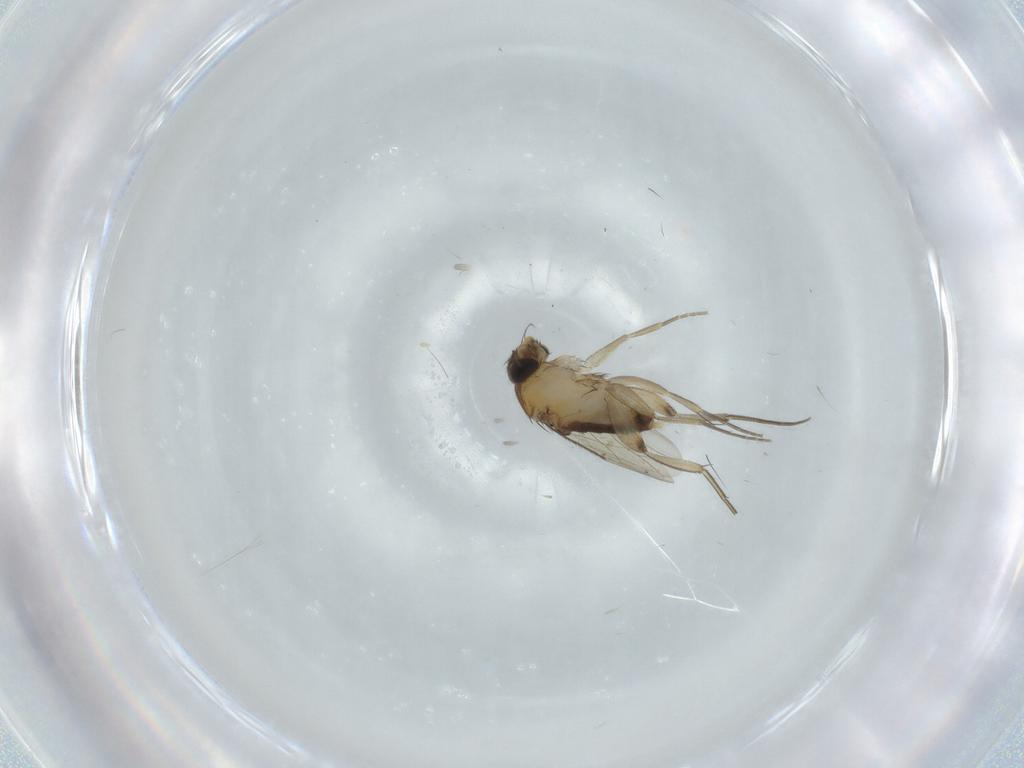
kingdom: Animalia
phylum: Arthropoda
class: Insecta
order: Diptera
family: Phoridae
